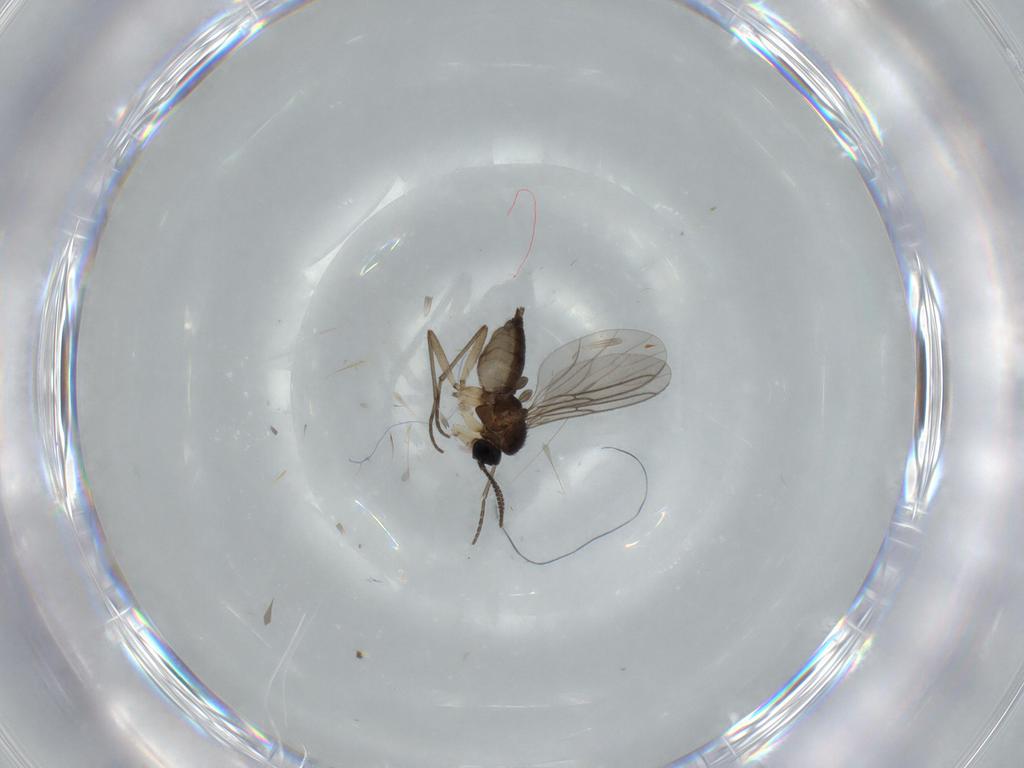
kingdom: Animalia
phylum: Arthropoda
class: Insecta
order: Diptera
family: Sciaridae
